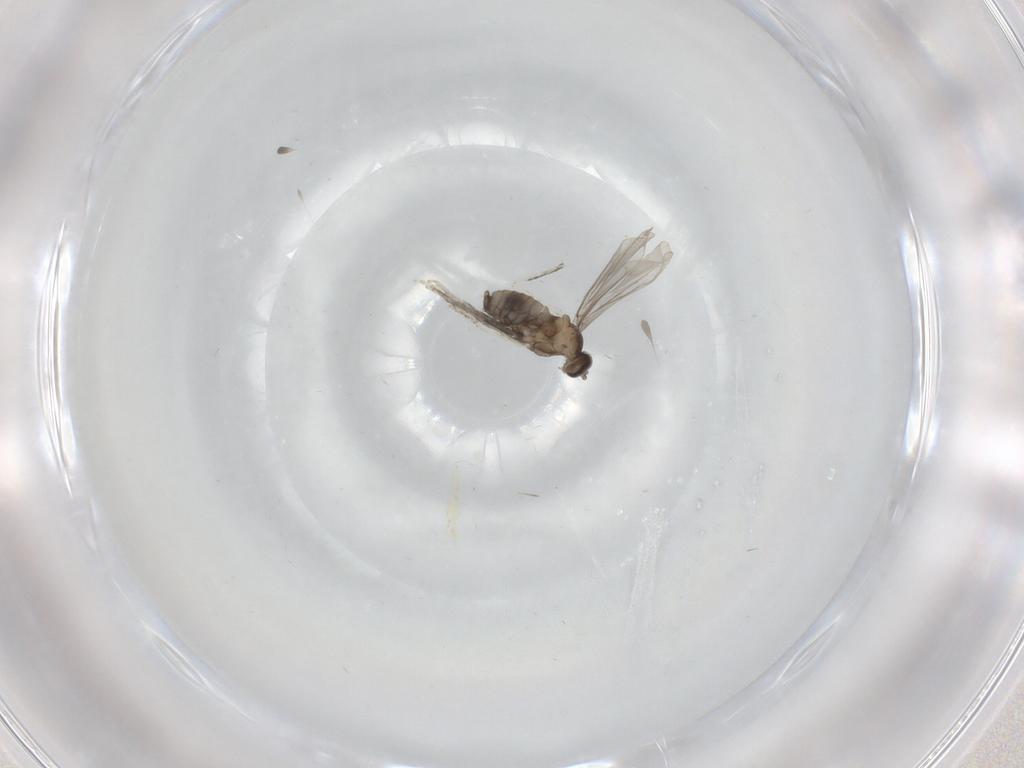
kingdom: Animalia
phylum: Arthropoda
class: Insecta
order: Diptera
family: Cecidomyiidae
